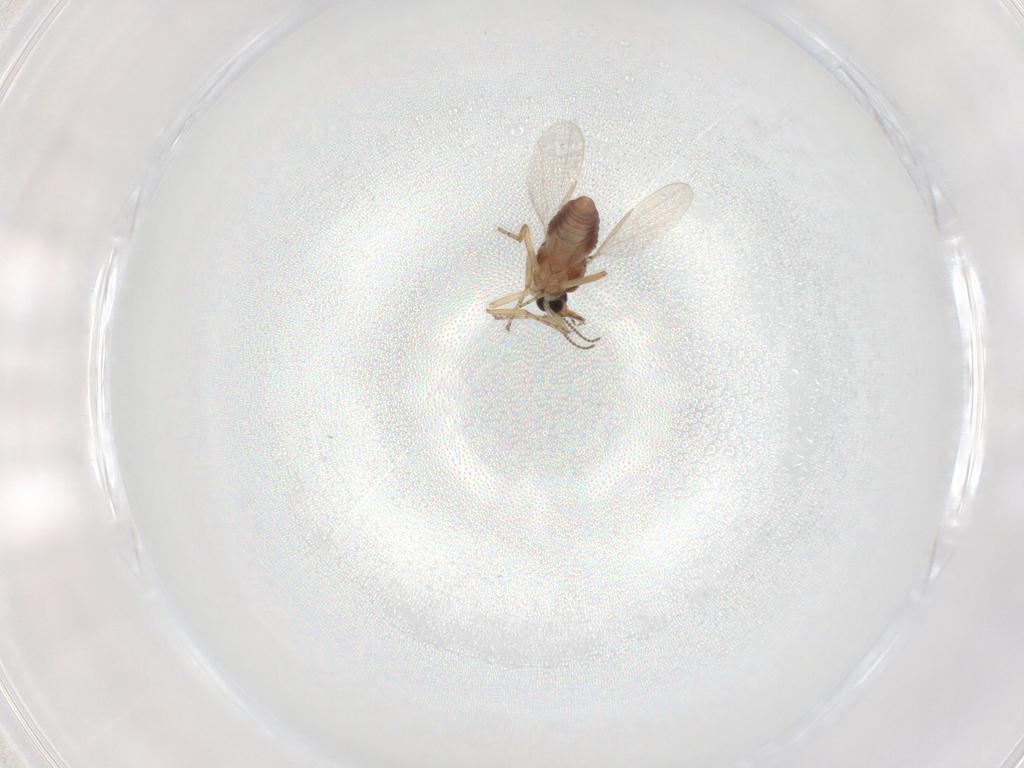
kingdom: Animalia
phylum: Arthropoda
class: Insecta
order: Diptera
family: Ceratopogonidae
